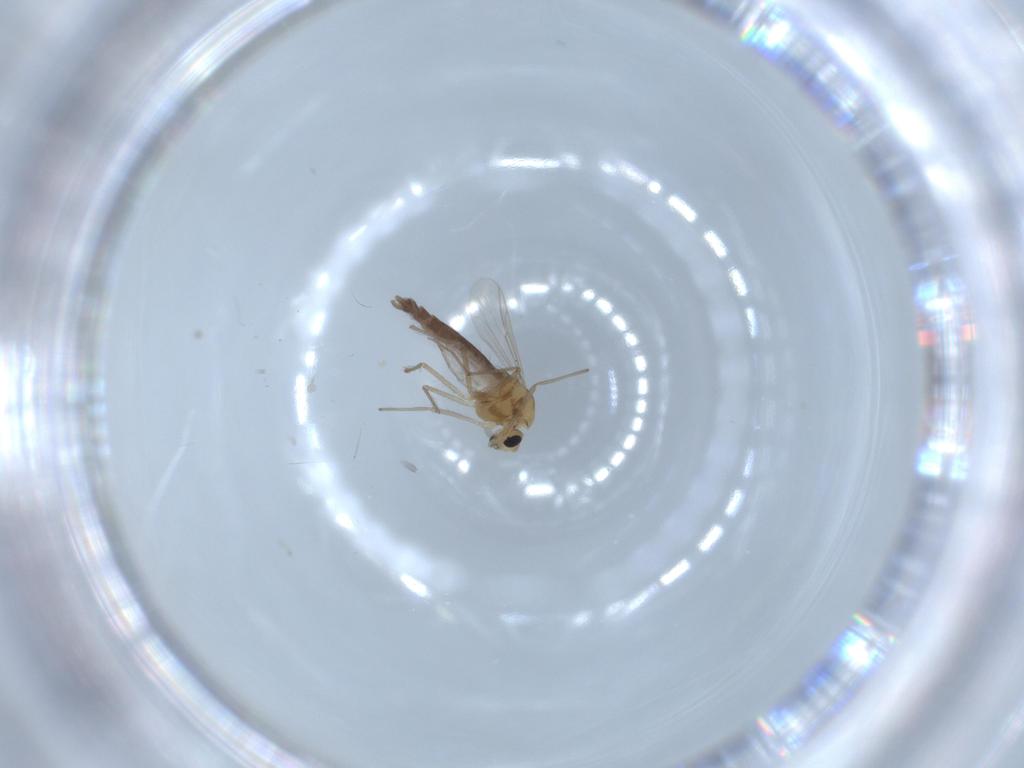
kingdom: Animalia
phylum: Arthropoda
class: Insecta
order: Diptera
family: Chironomidae
